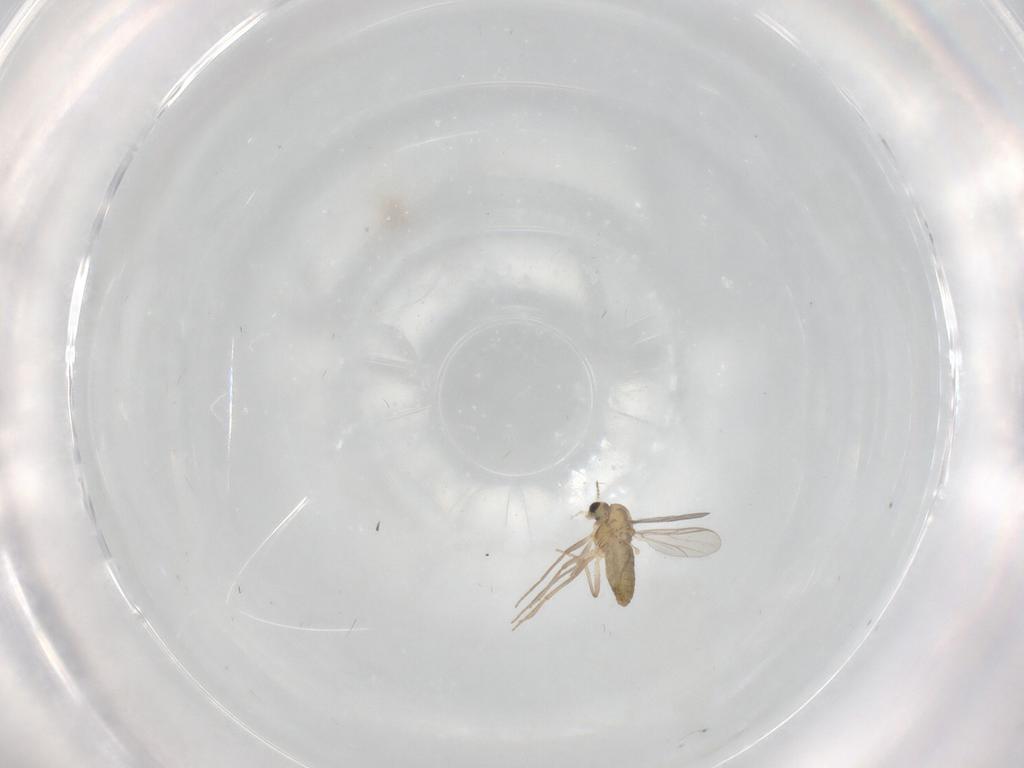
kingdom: Animalia
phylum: Arthropoda
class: Insecta
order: Diptera
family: Chironomidae
